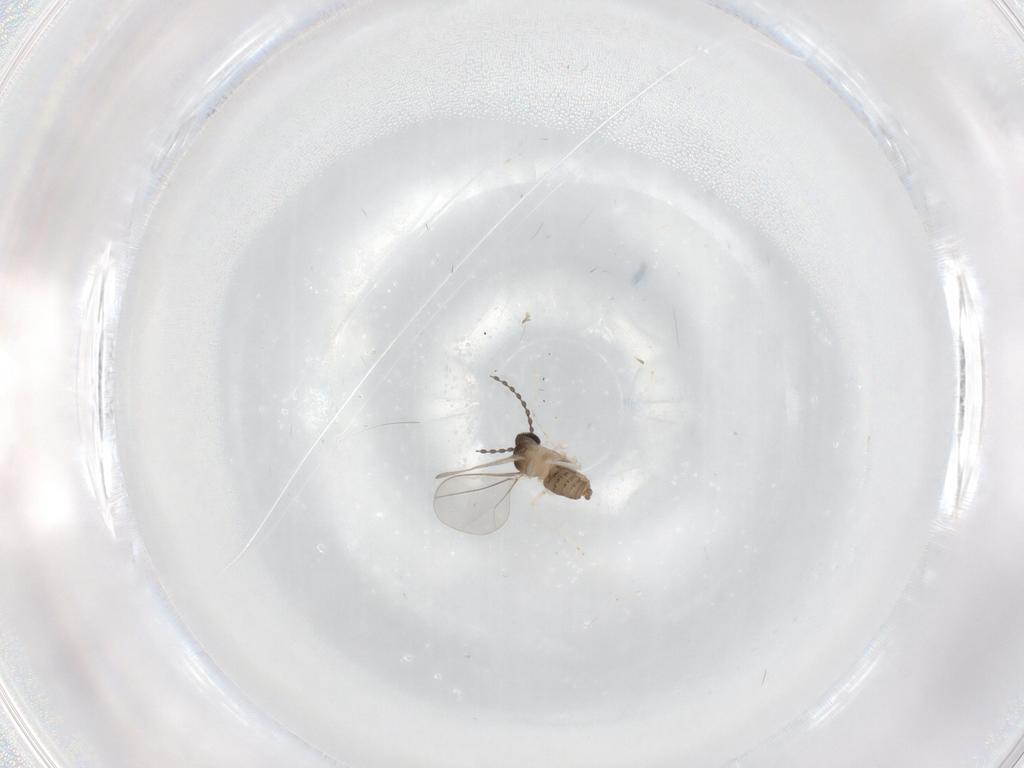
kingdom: Animalia
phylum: Arthropoda
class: Insecta
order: Diptera
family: Cecidomyiidae
